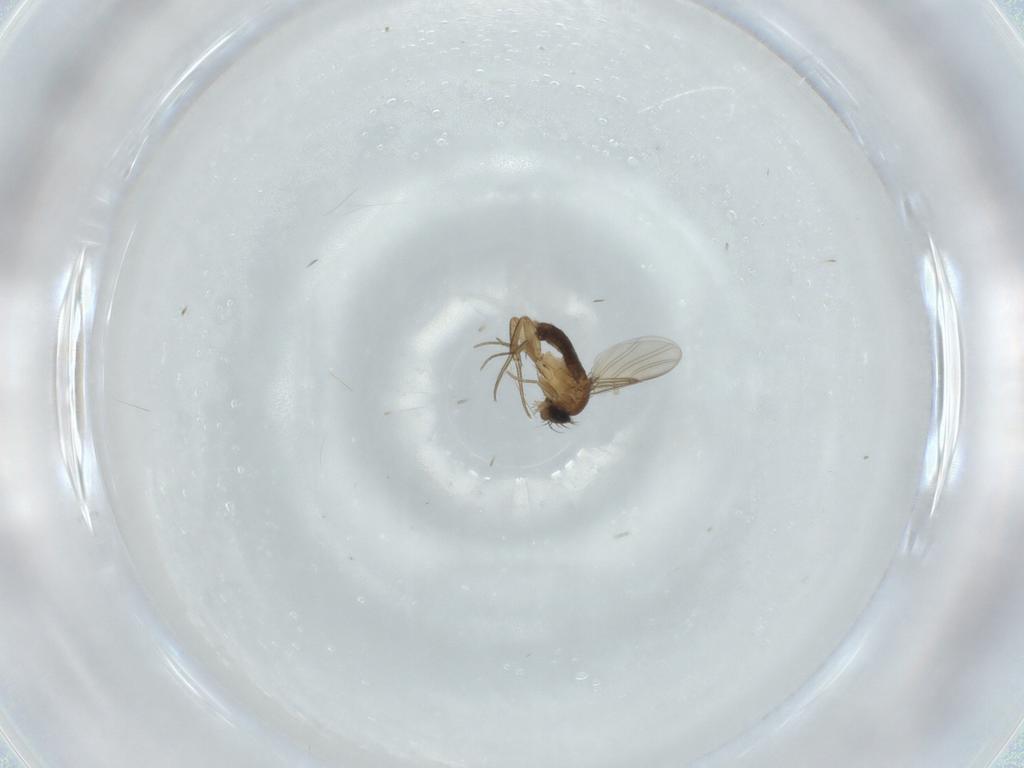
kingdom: Animalia
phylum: Arthropoda
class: Insecta
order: Diptera
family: Phoridae
